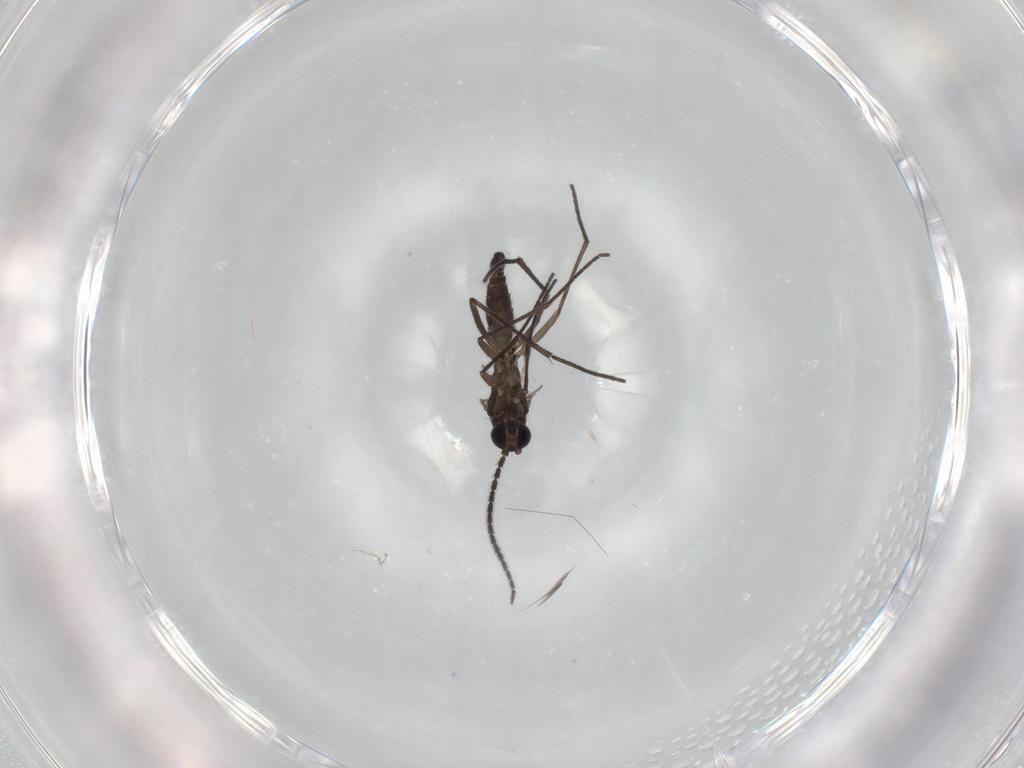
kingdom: Animalia
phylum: Arthropoda
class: Insecta
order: Diptera
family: Sciaridae
